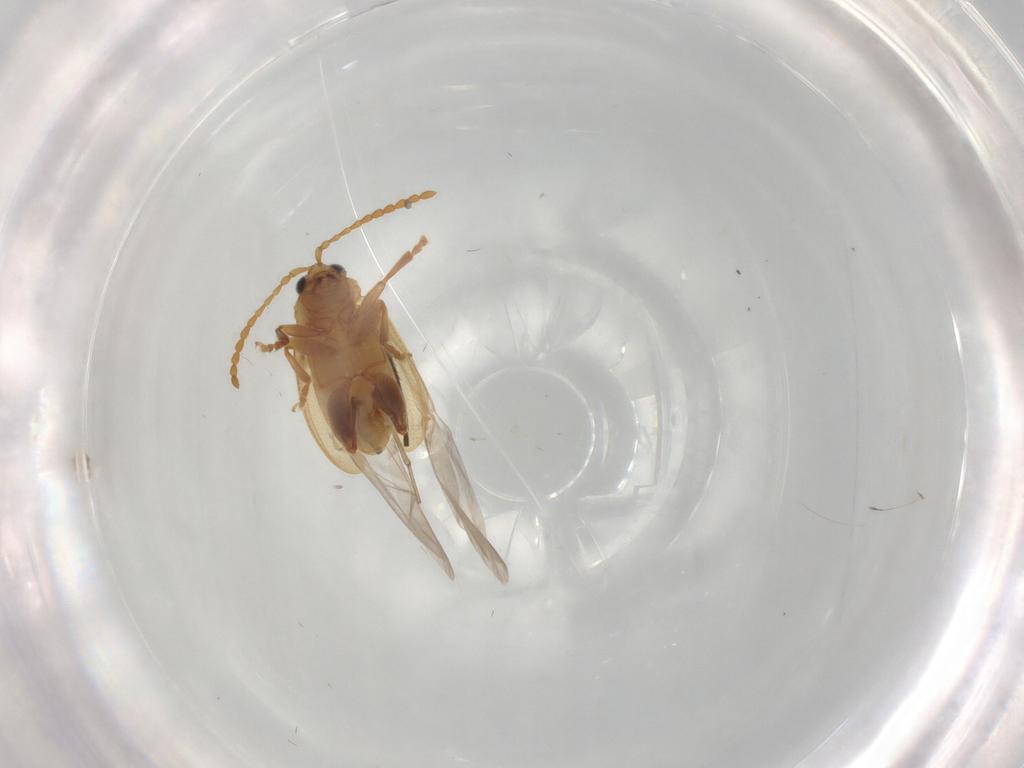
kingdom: Animalia
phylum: Arthropoda
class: Insecta
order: Coleoptera
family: Chrysomelidae
